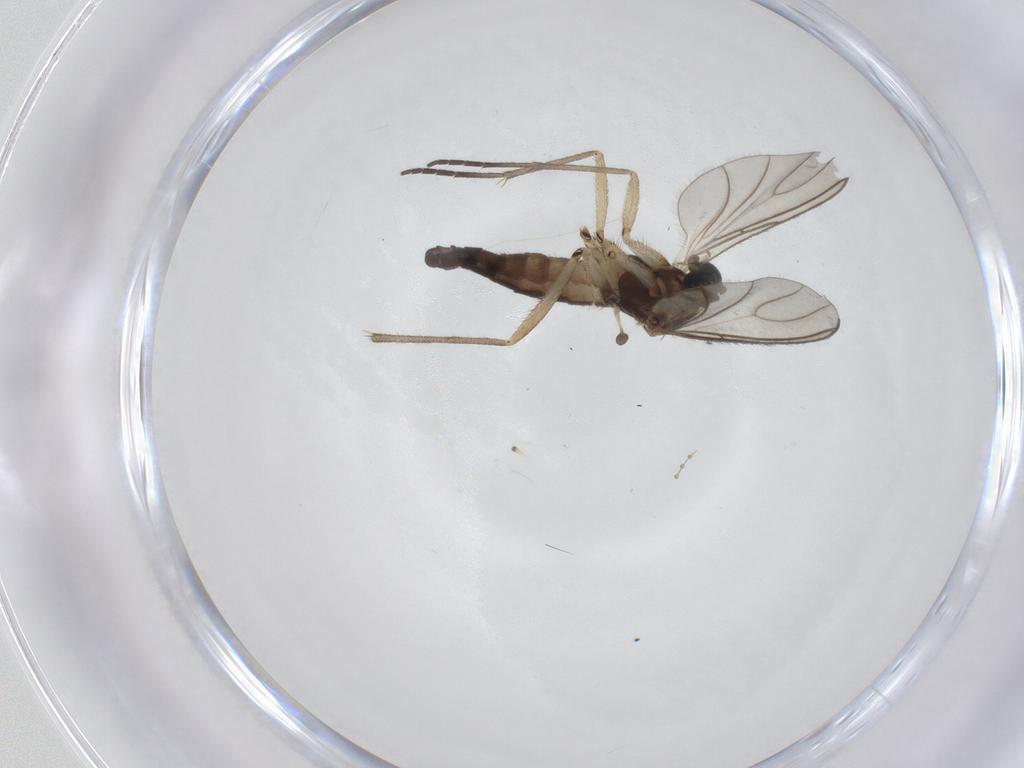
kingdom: Animalia
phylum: Arthropoda
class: Insecta
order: Diptera
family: Sciaridae
